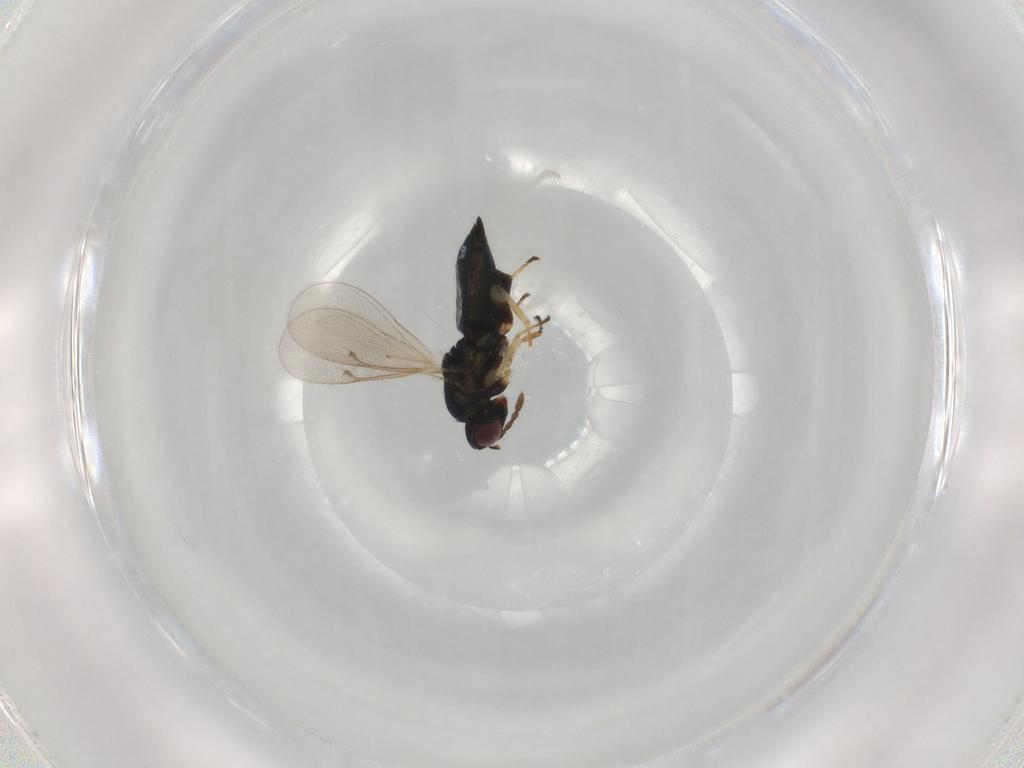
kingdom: Animalia
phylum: Arthropoda
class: Insecta
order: Hymenoptera
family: Eulophidae
